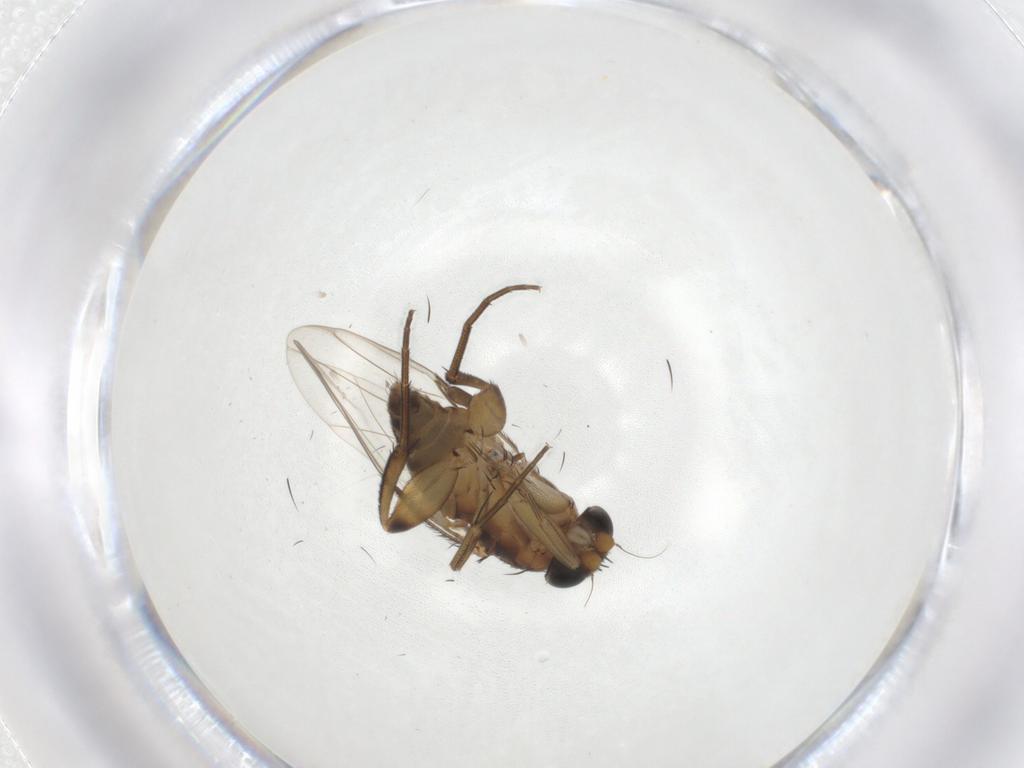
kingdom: Animalia
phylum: Arthropoda
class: Insecta
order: Diptera
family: Phoridae
